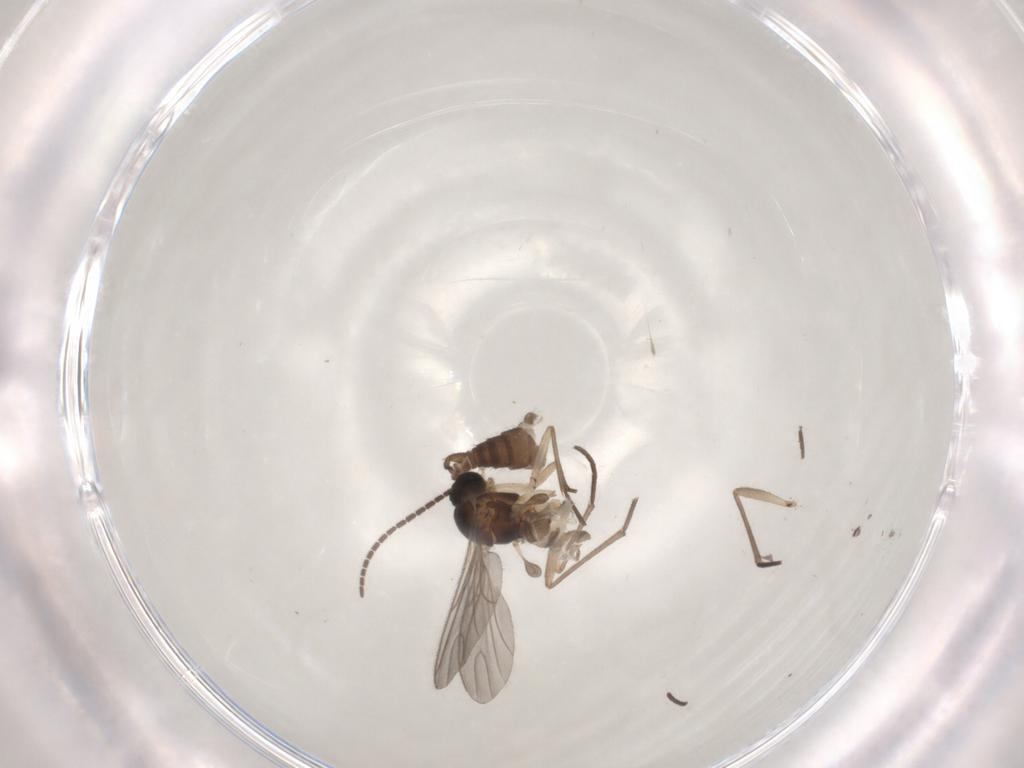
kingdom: Animalia
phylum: Arthropoda
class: Insecta
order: Diptera
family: Sciaridae
